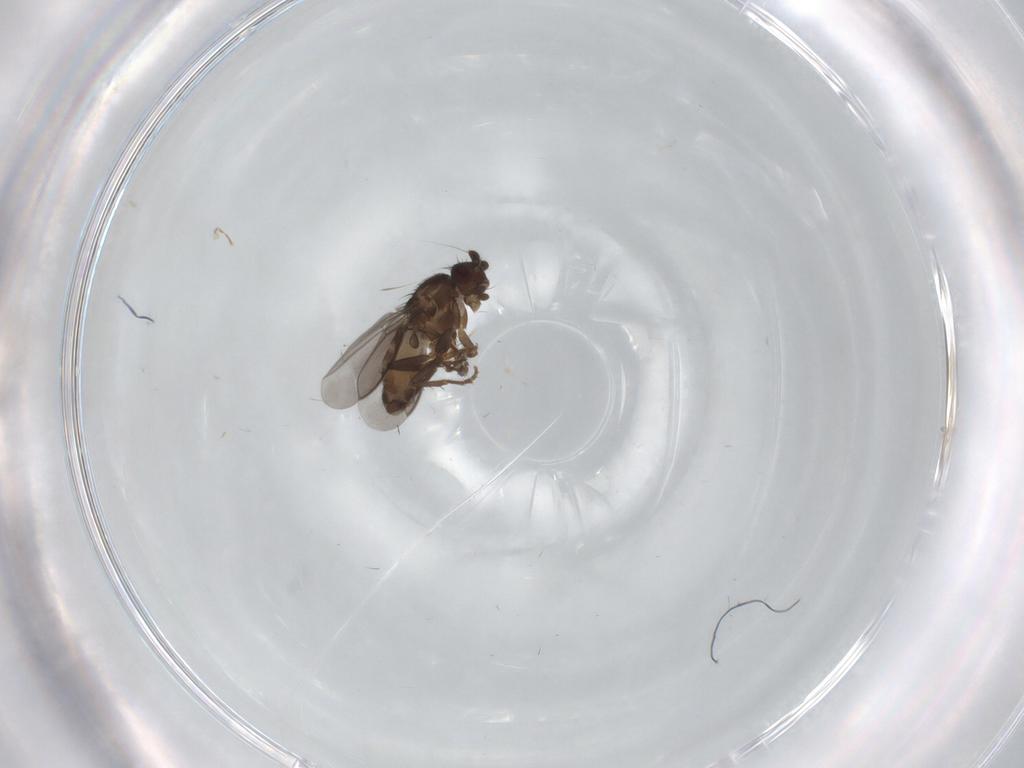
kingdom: Animalia
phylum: Arthropoda
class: Insecta
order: Diptera
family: Sphaeroceridae
